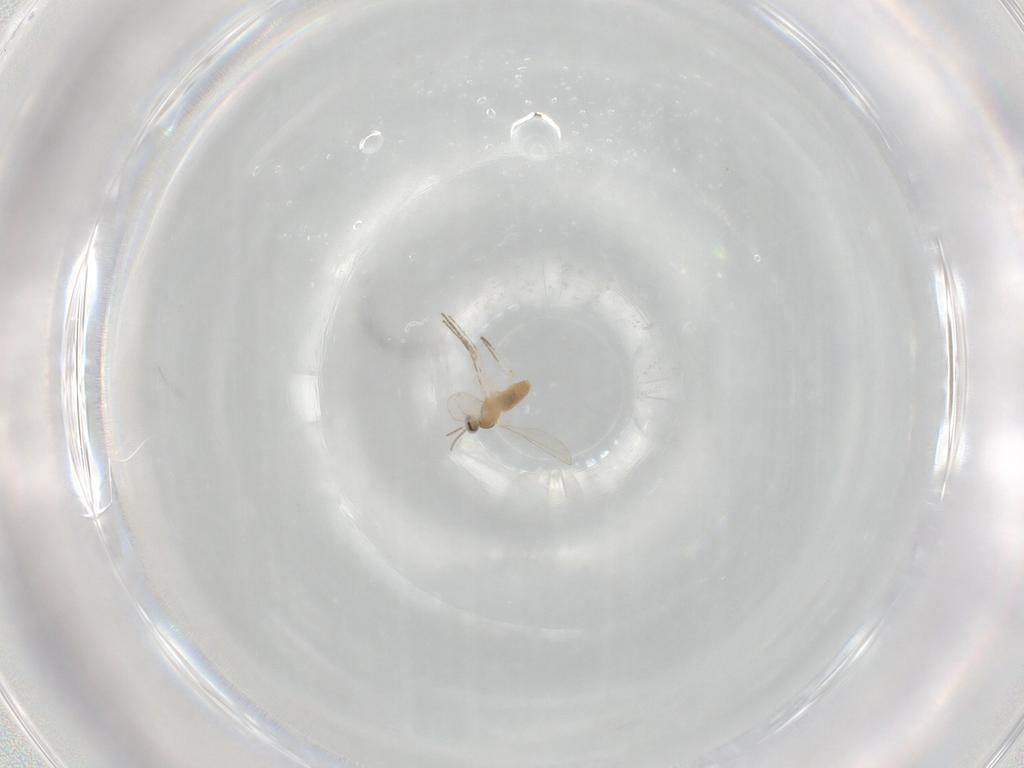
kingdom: Animalia
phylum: Arthropoda
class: Insecta
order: Diptera
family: Cecidomyiidae
